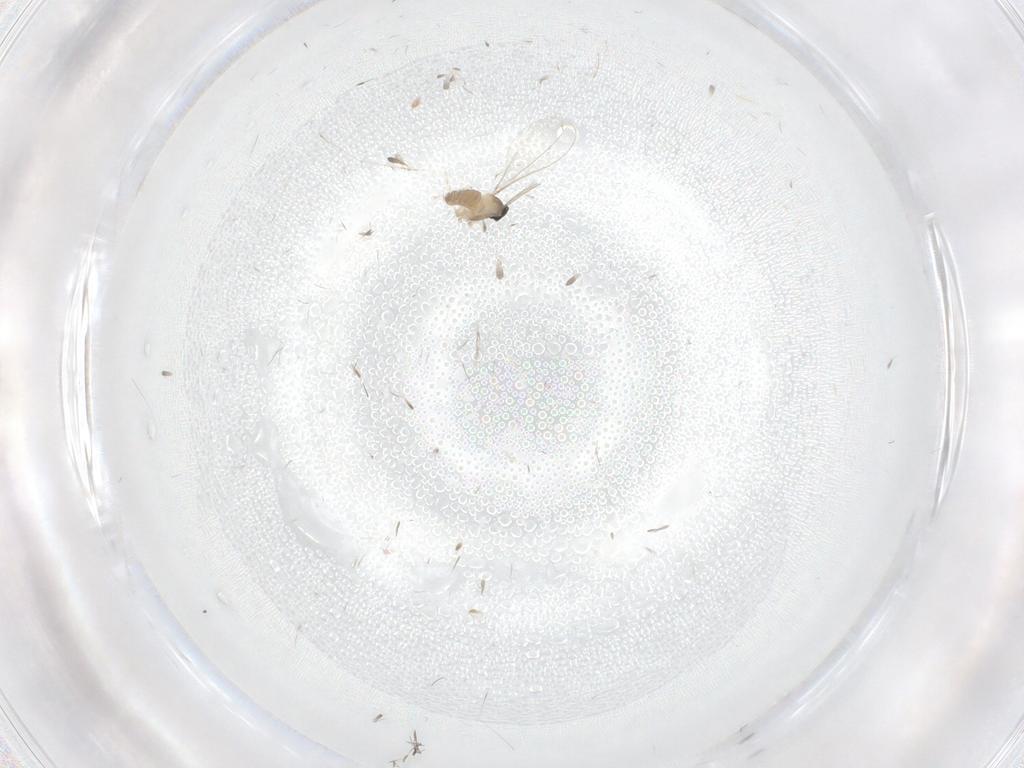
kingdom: Animalia
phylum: Arthropoda
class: Insecta
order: Diptera
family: Cecidomyiidae
